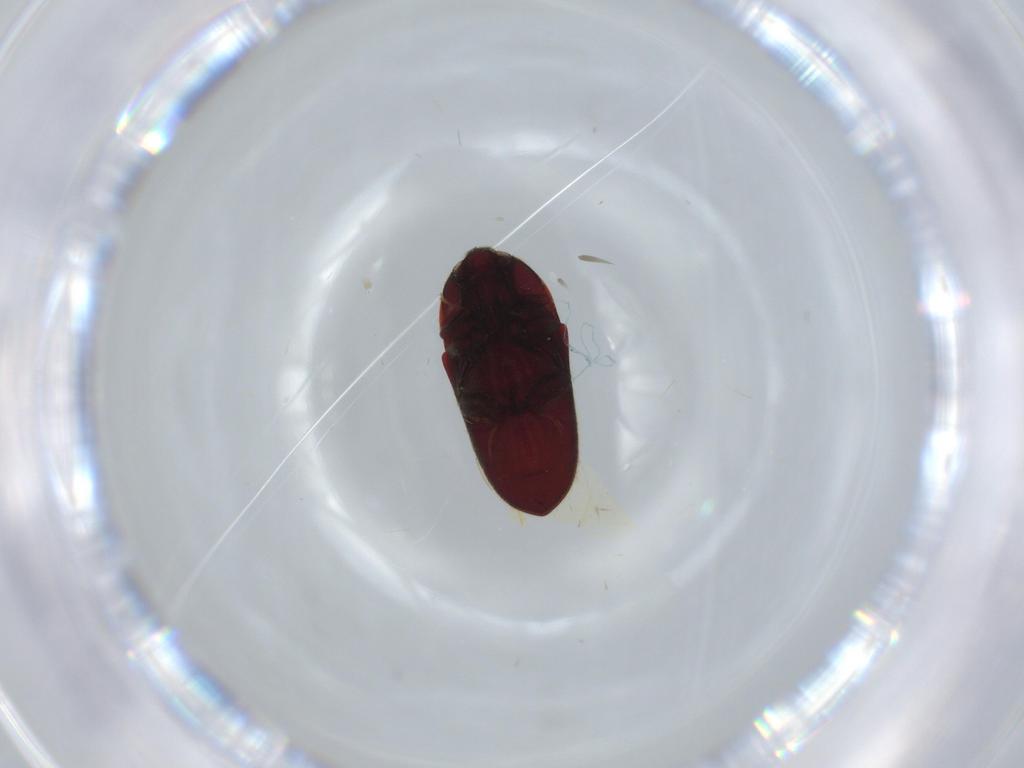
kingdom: Animalia
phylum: Arthropoda
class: Insecta
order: Coleoptera
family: Throscidae
